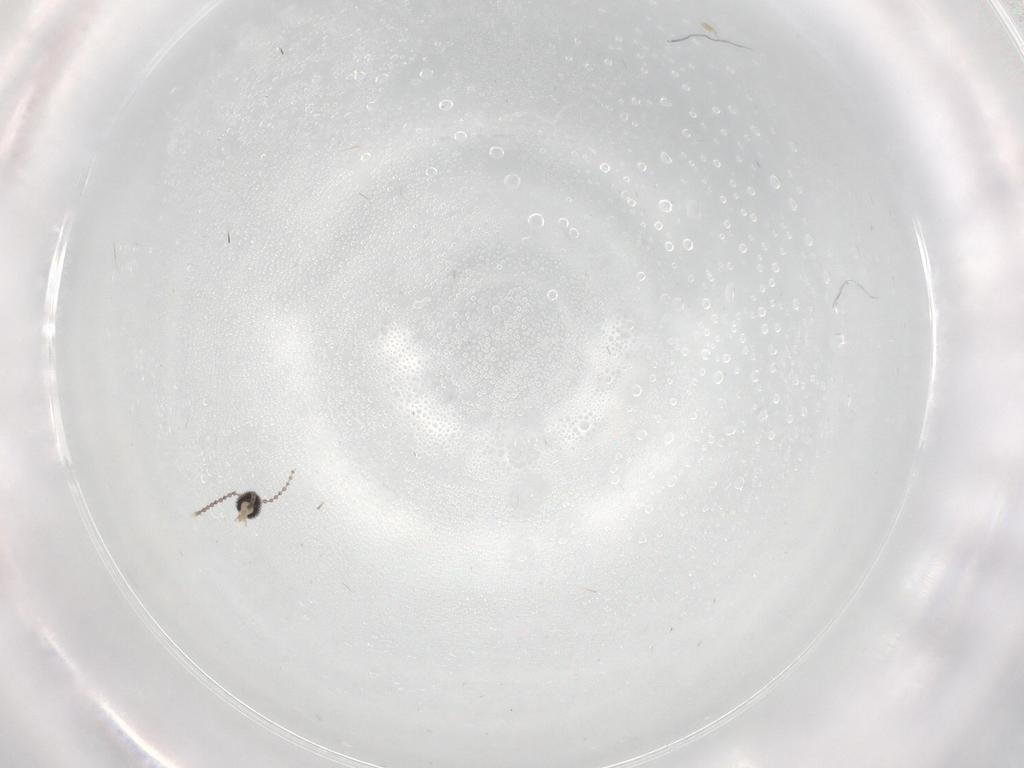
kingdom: Animalia
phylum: Arthropoda
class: Insecta
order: Diptera
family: Cecidomyiidae
